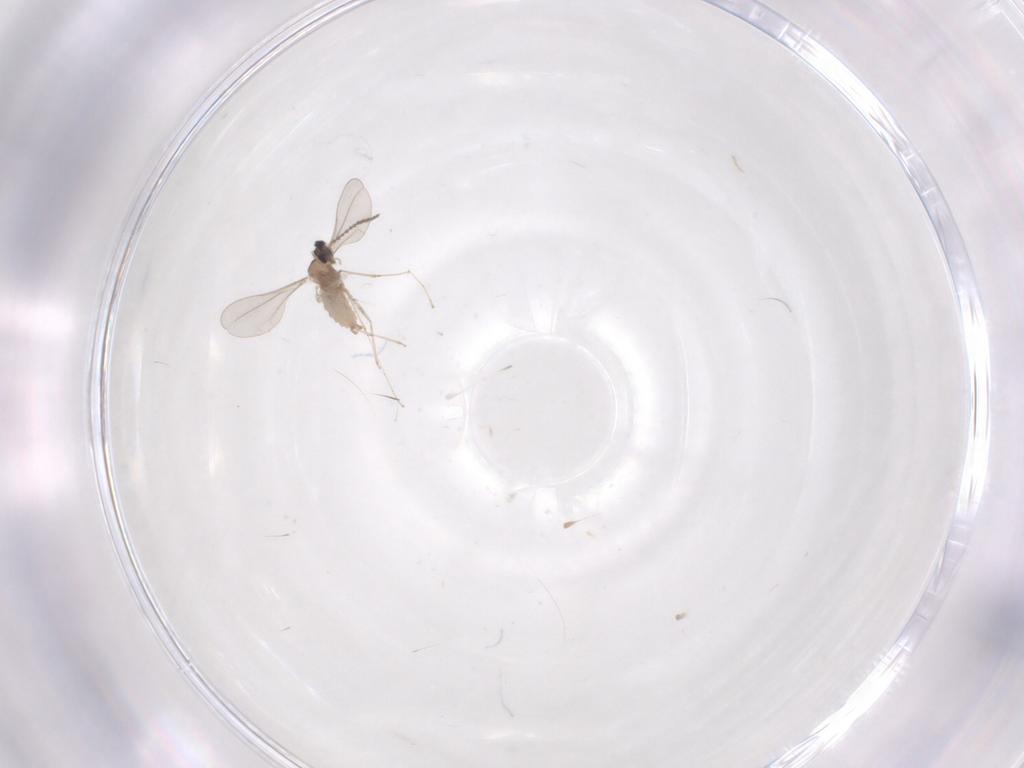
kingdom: Animalia
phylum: Arthropoda
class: Insecta
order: Diptera
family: Cecidomyiidae
